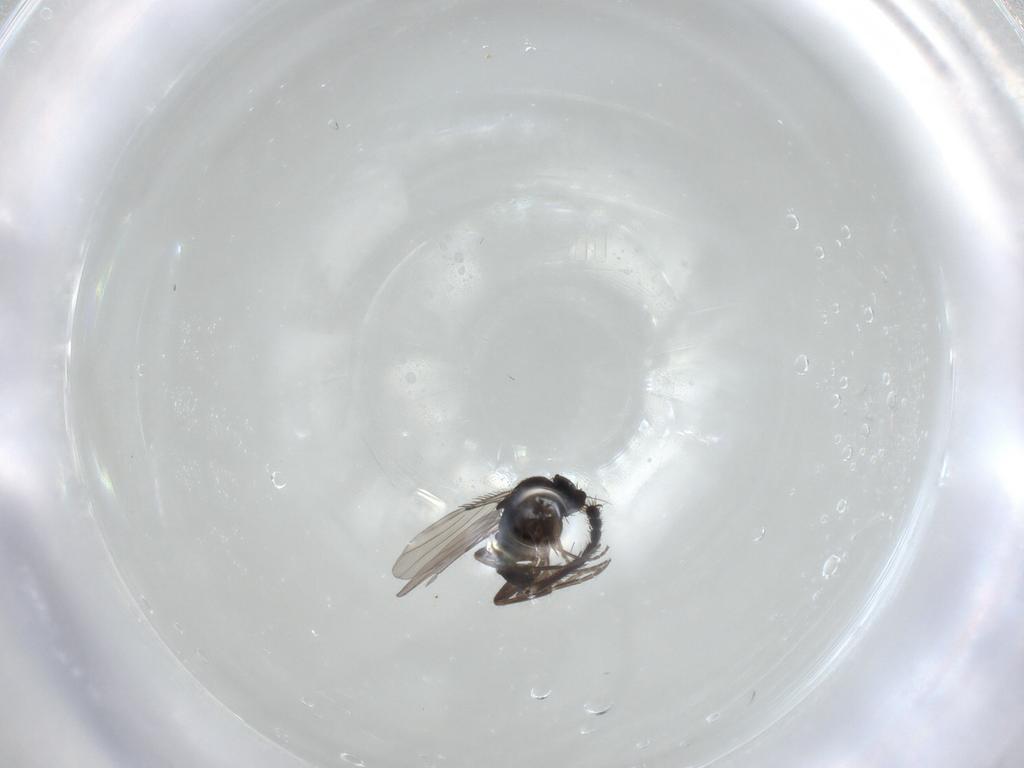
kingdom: Animalia
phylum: Arthropoda
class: Insecta
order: Diptera
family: Phoridae
